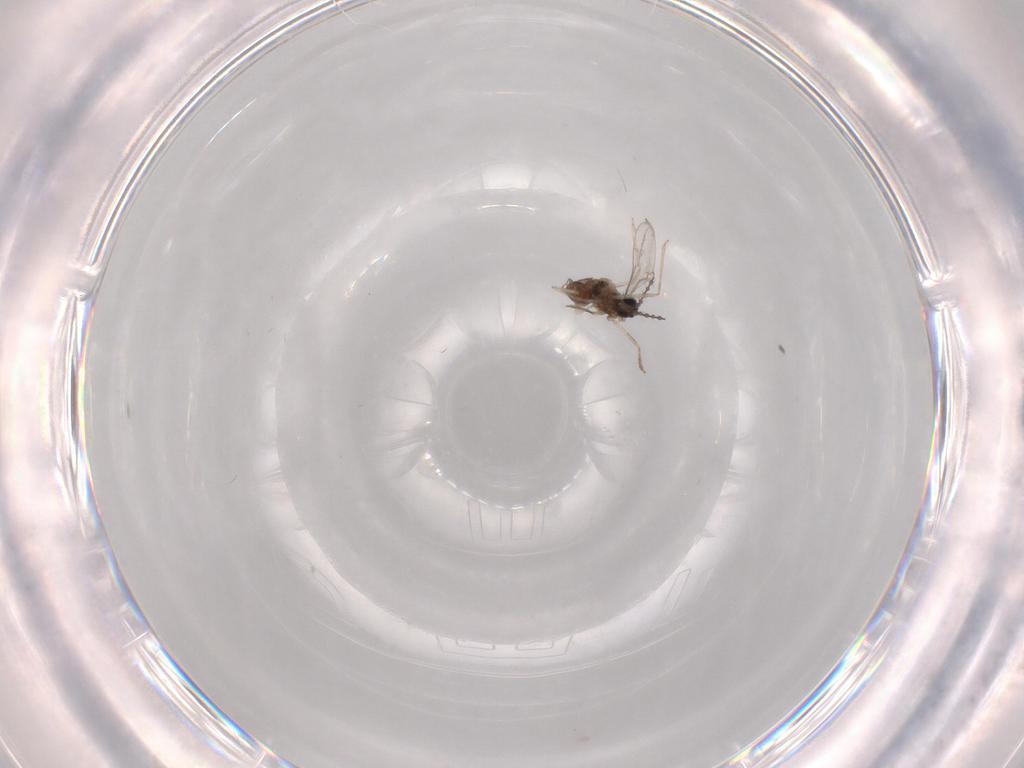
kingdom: Animalia
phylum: Arthropoda
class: Insecta
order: Diptera
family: Cecidomyiidae
